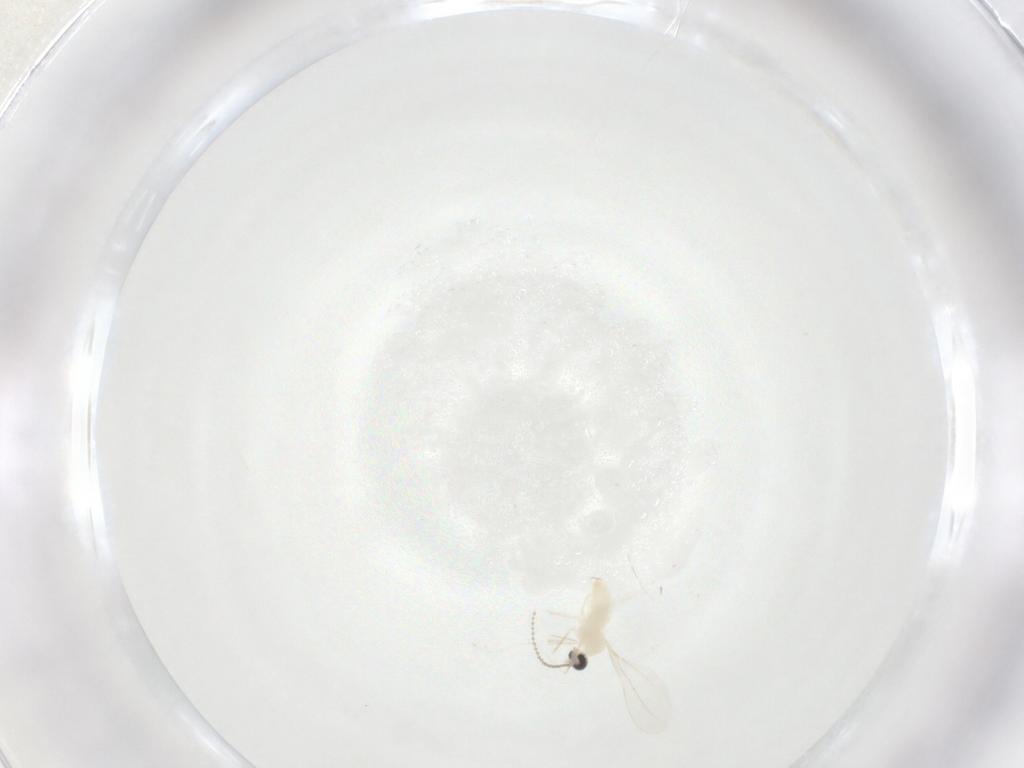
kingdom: Animalia
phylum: Arthropoda
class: Insecta
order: Diptera
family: Cecidomyiidae
